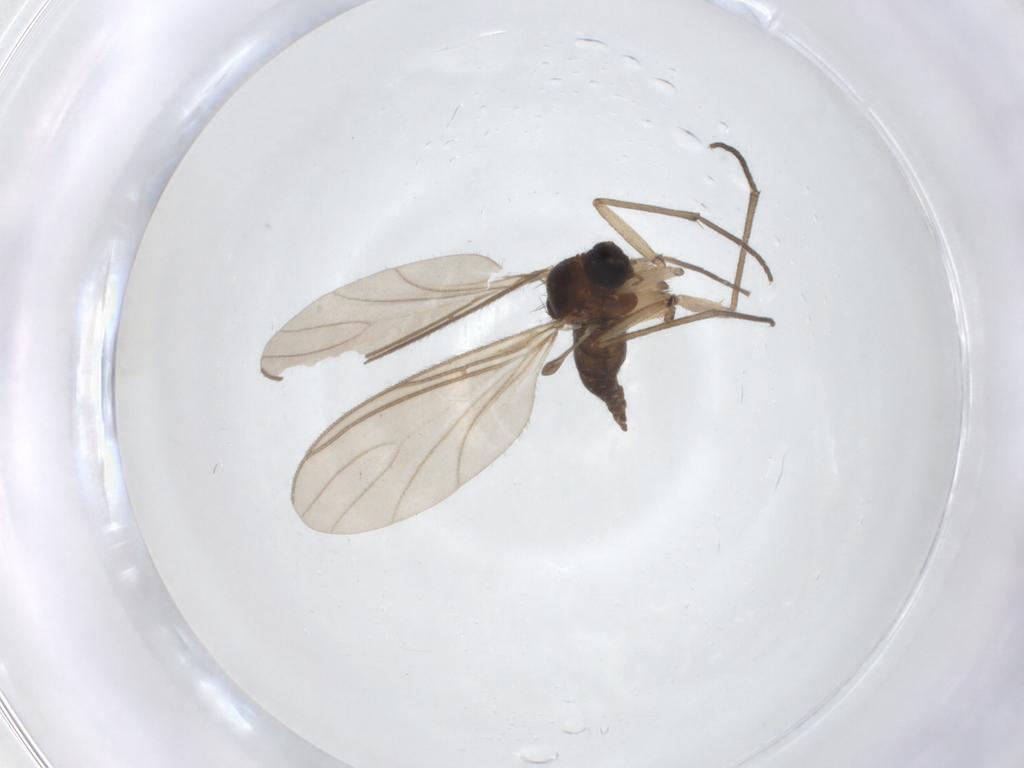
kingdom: Animalia
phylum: Arthropoda
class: Insecta
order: Diptera
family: Sciaridae
